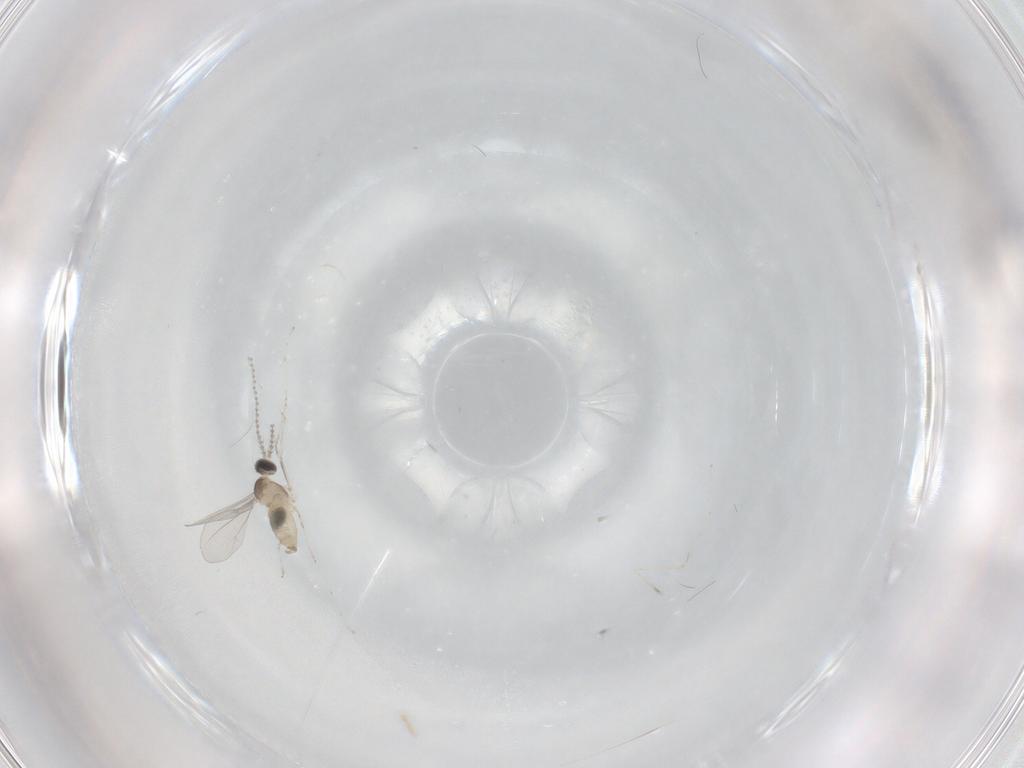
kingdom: Animalia
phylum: Arthropoda
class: Insecta
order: Diptera
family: Cecidomyiidae
